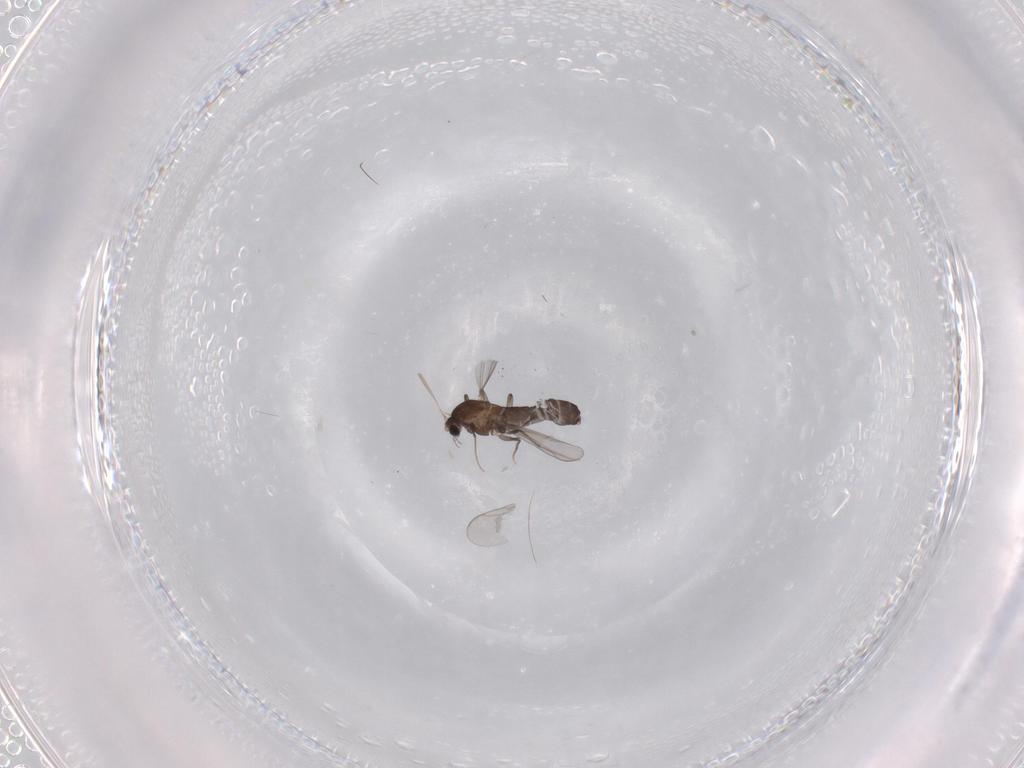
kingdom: Animalia
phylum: Arthropoda
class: Insecta
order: Diptera
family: Chironomidae
